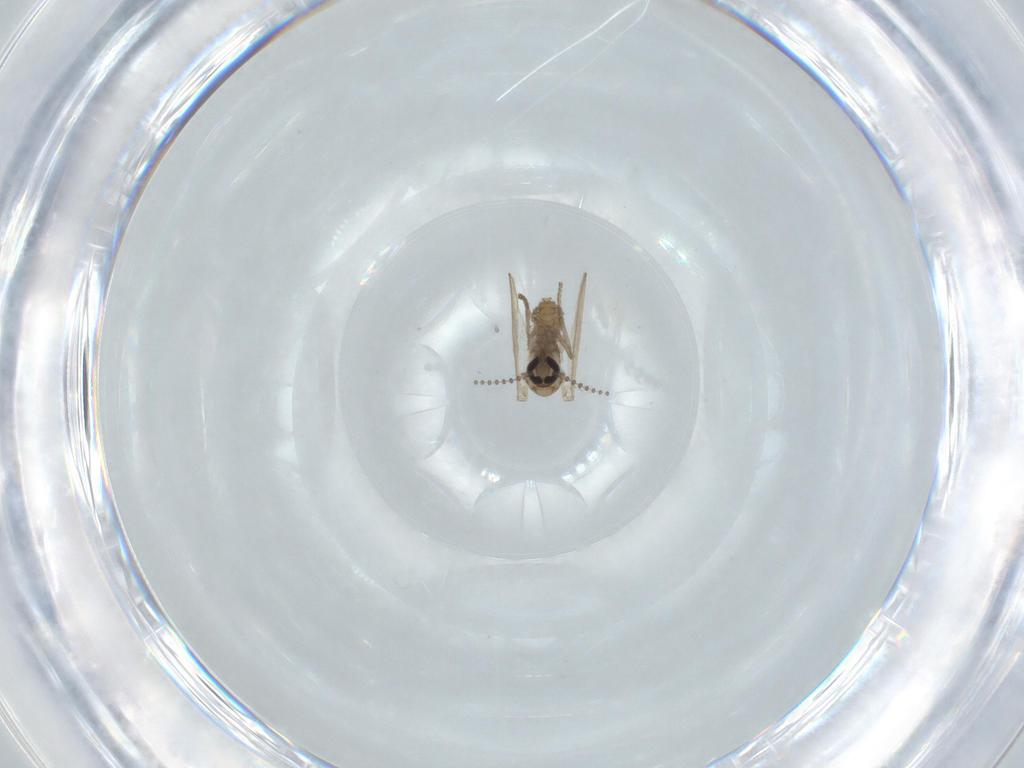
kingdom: Animalia
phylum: Arthropoda
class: Insecta
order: Diptera
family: Psychodidae
